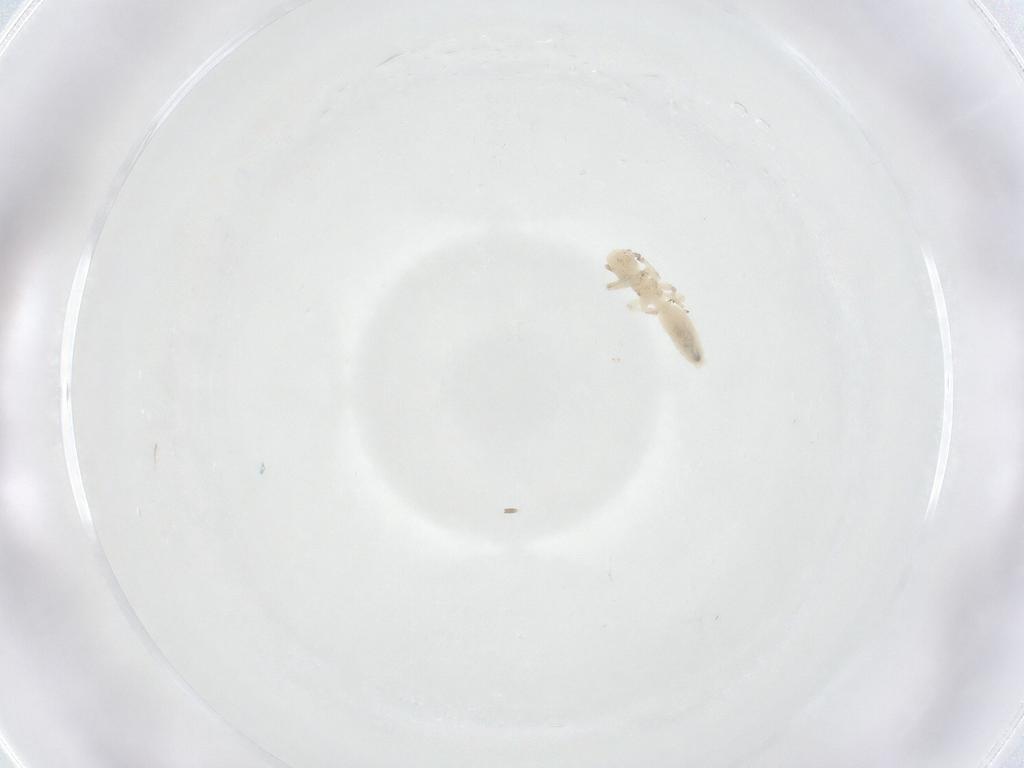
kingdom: Animalia
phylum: Arthropoda
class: Insecta
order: Psocodea
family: Caeciliusidae
